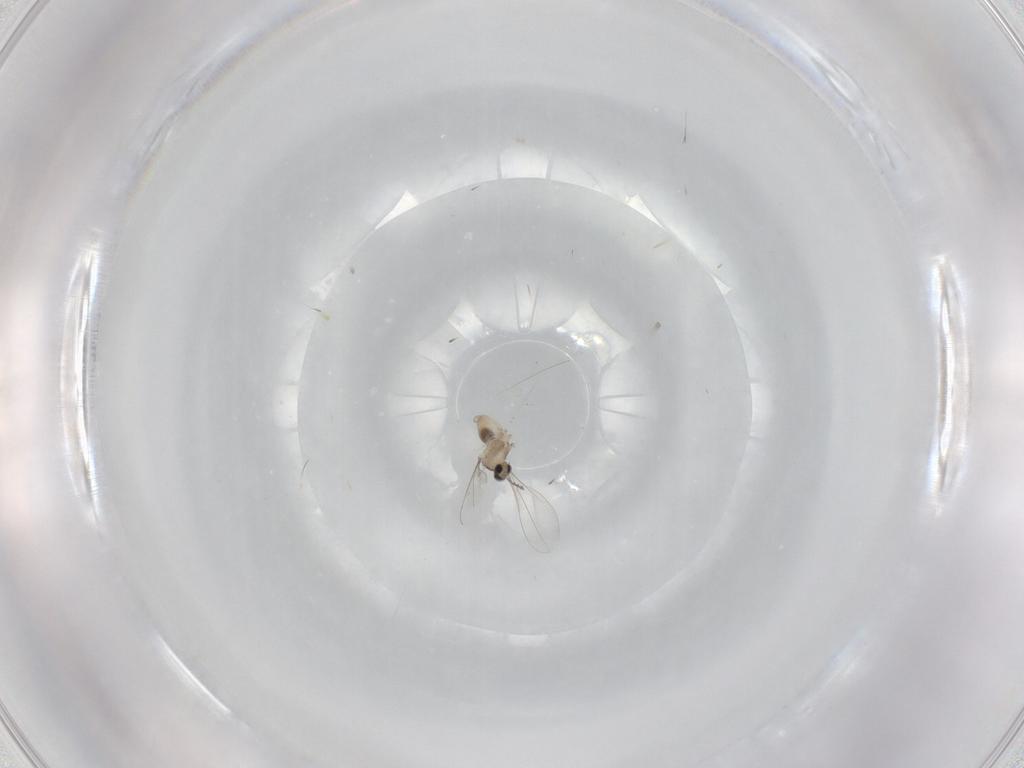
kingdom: Animalia
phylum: Arthropoda
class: Insecta
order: Diptera
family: Cecidomyiidae
